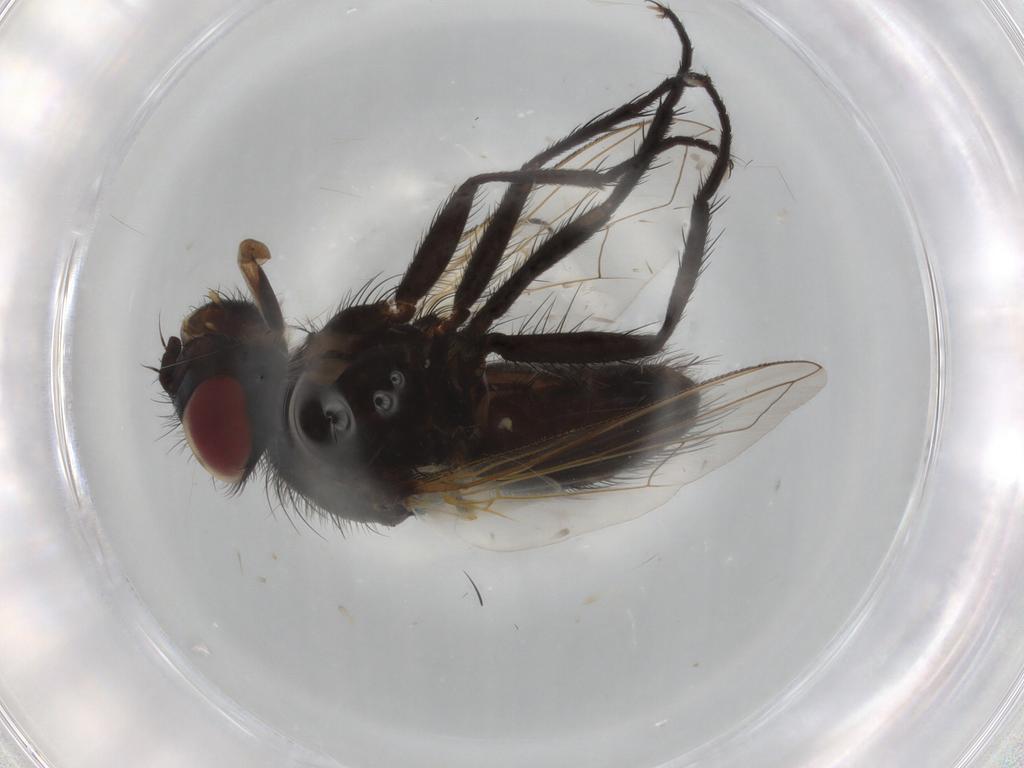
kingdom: Animalia
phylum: Arthropoda
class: Insecta
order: Diptera
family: Tachinidae
